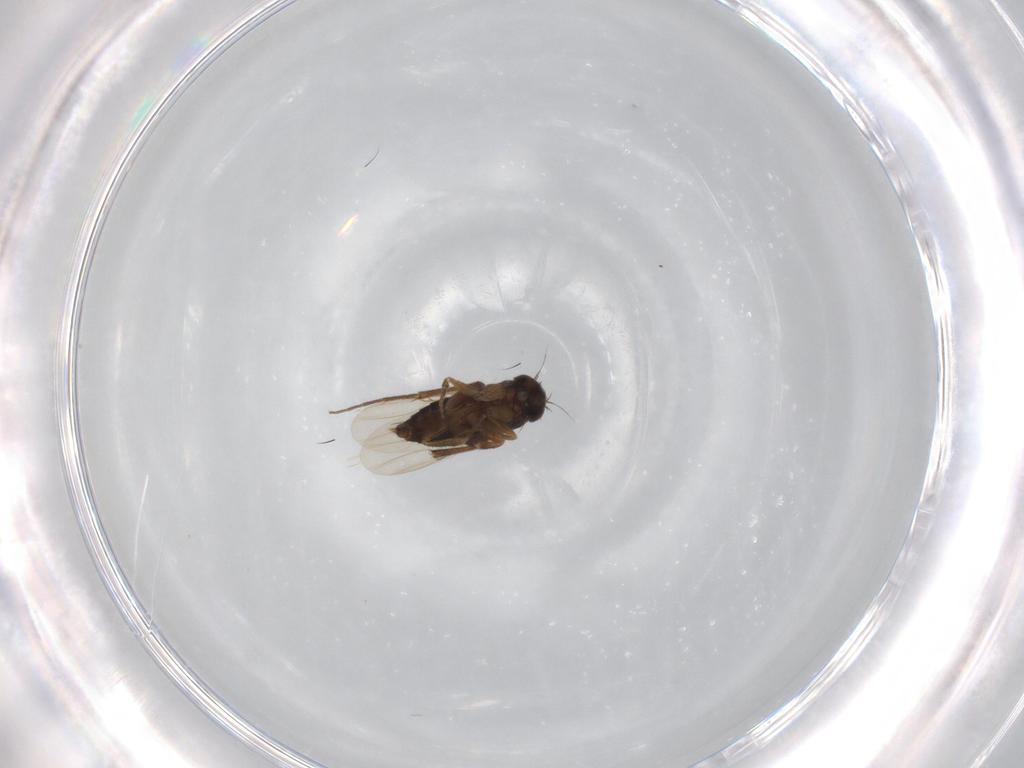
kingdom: Animalia
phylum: Arthropoda
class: Insecta
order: Diptera
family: Phoridae
